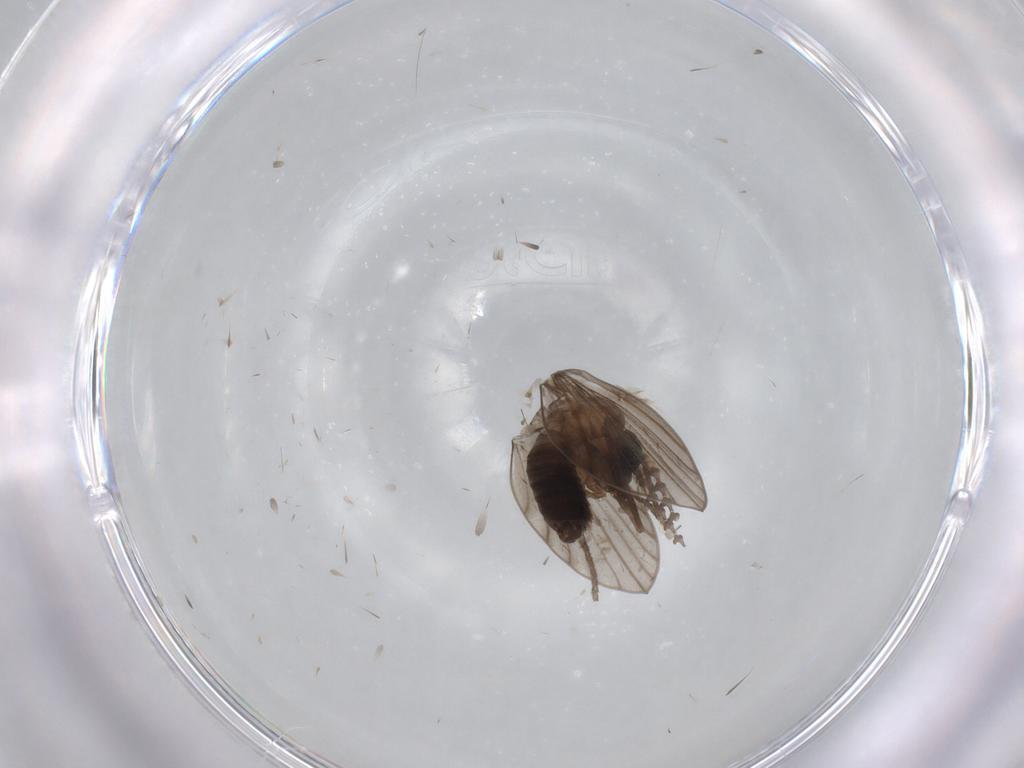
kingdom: Animalia
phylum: Arthropoda
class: Insecta
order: Diptera
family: Psychodidae
